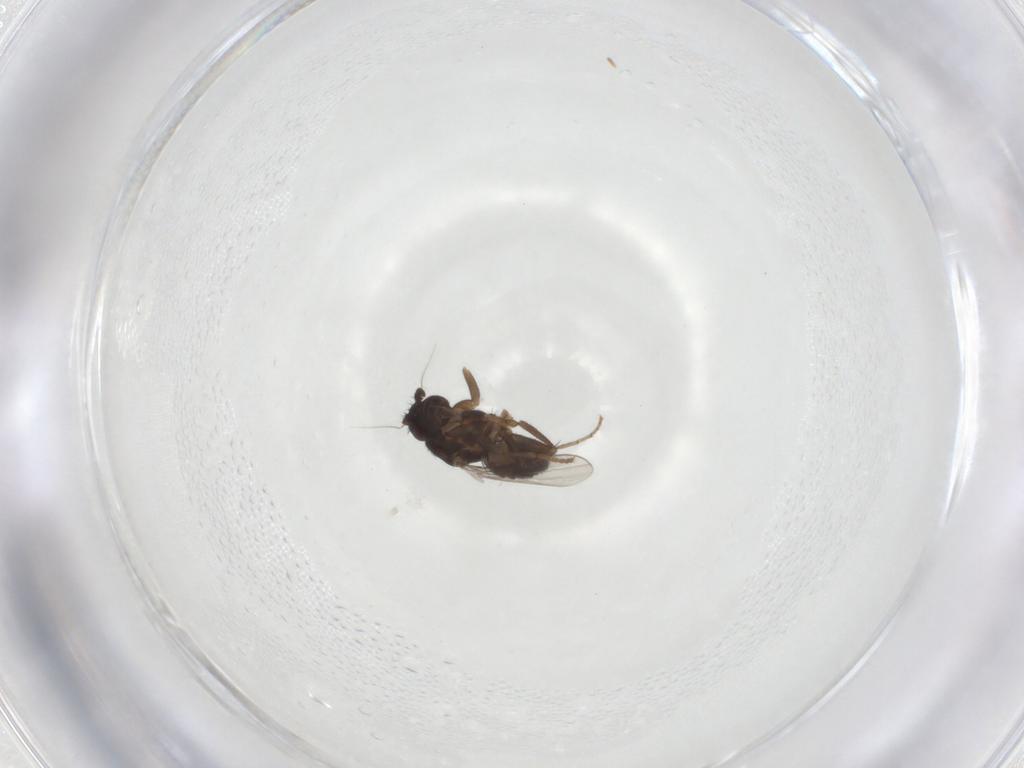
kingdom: Animalia
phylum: Arthropoda
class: Insecta
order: Diptera
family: Sphaeroceridae
